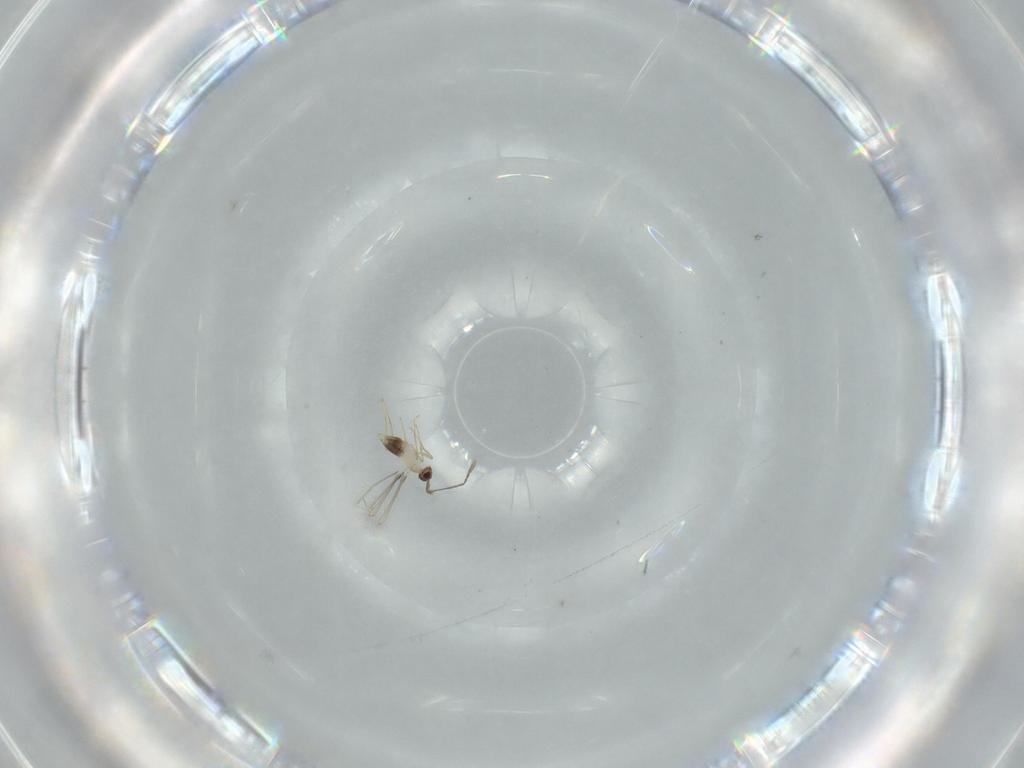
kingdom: Animalia
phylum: Arthropoda
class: Insecta
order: Hymenoptera
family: Mymaridae
